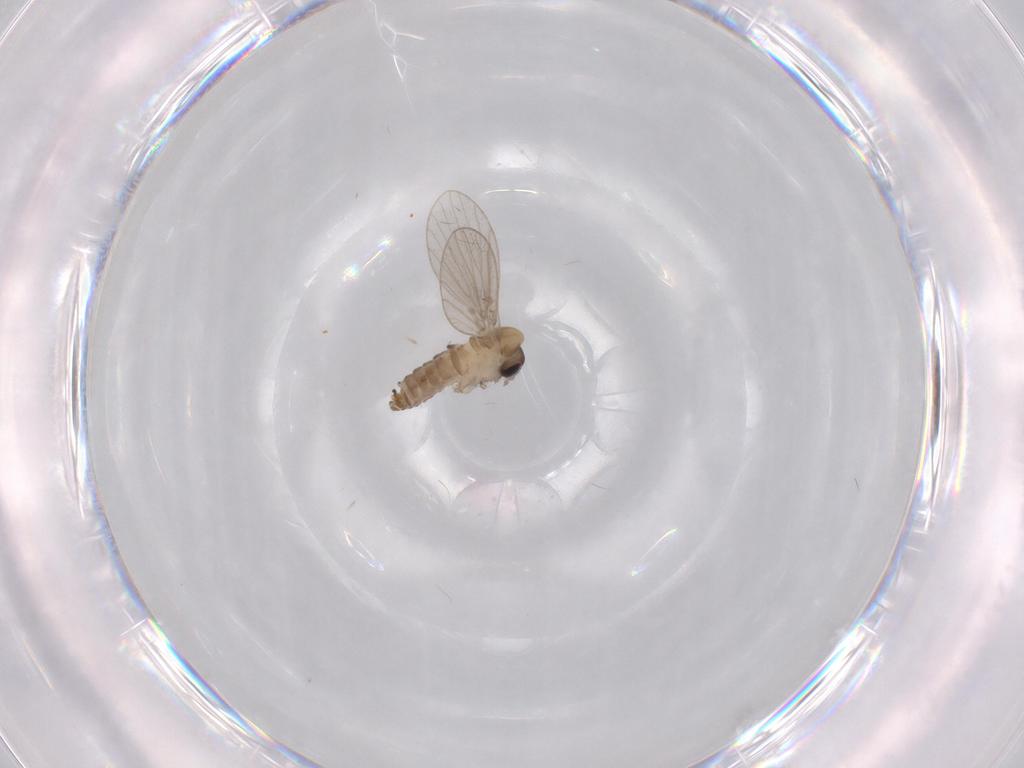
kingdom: Animalia
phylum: Arthropoda
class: Insecta
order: Diptera
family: Psychodidae
